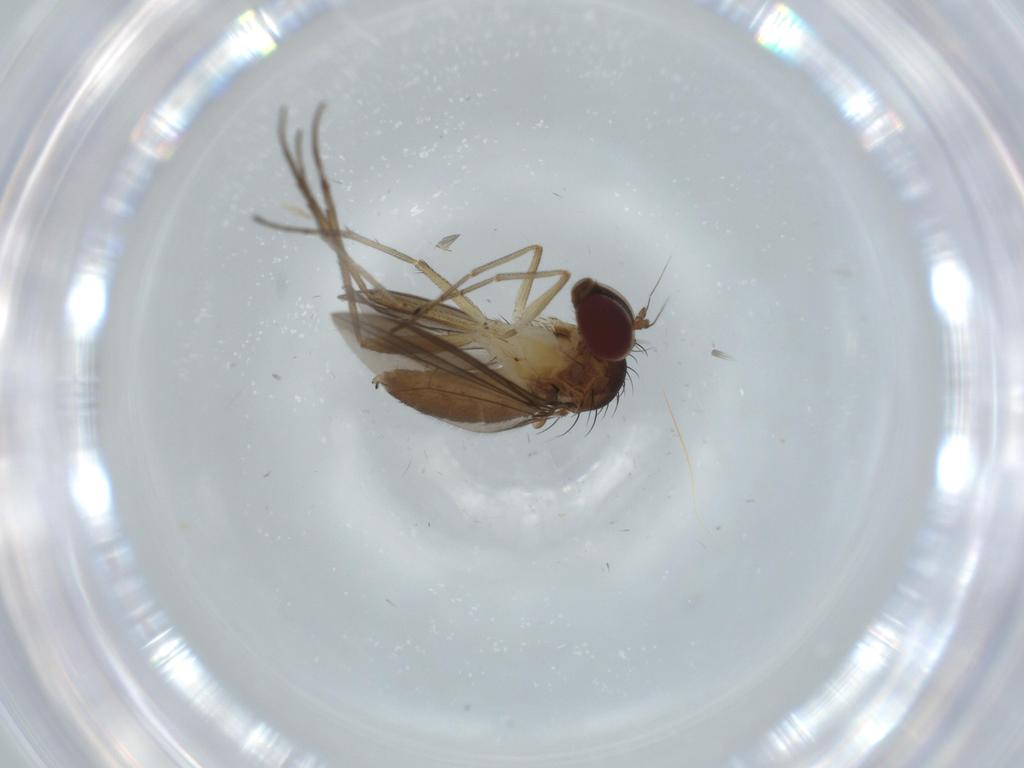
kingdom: Animalia
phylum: Arthropoda
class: Insecta
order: Diptera
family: Dolichopodidae
